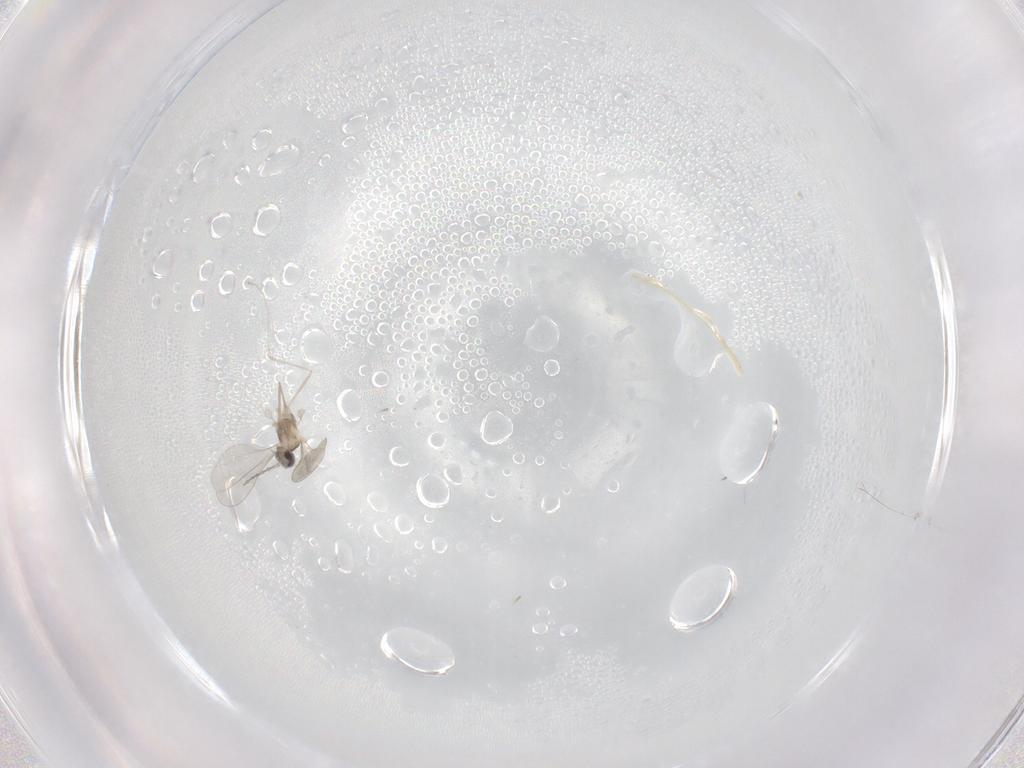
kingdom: Animalia
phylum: Arthropoda
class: Insecta
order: Diptera
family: Cecidomyiidae
